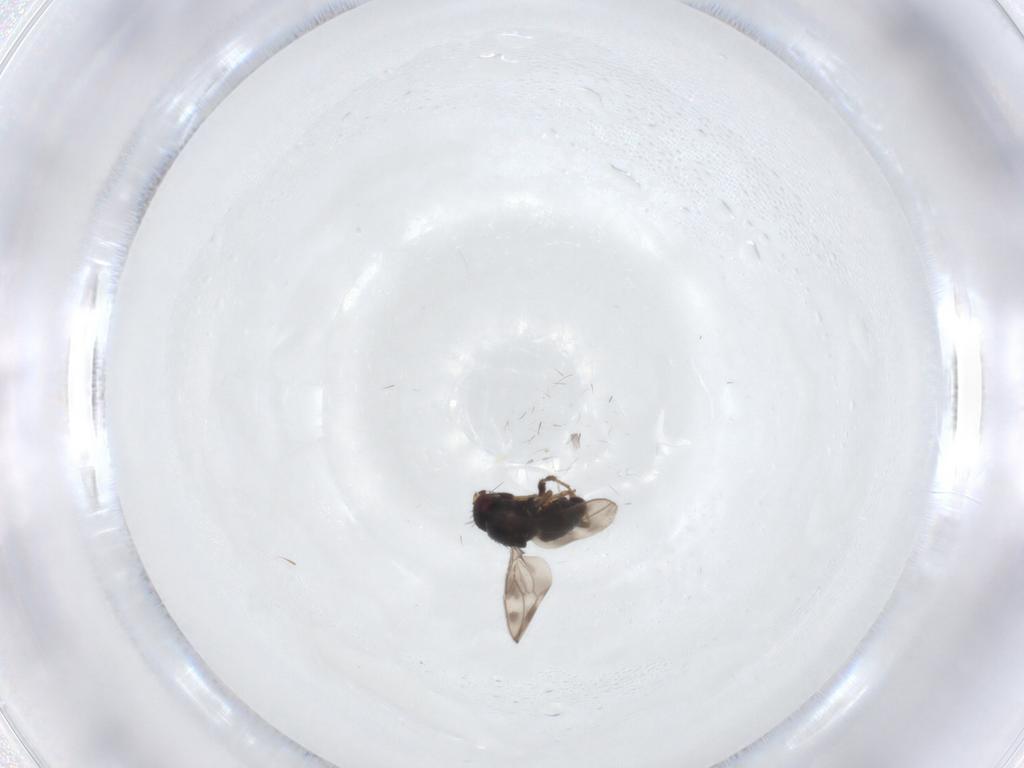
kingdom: Animalia
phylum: Arthropoda
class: Insecta
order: Diptera
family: Sphaeroceridae
